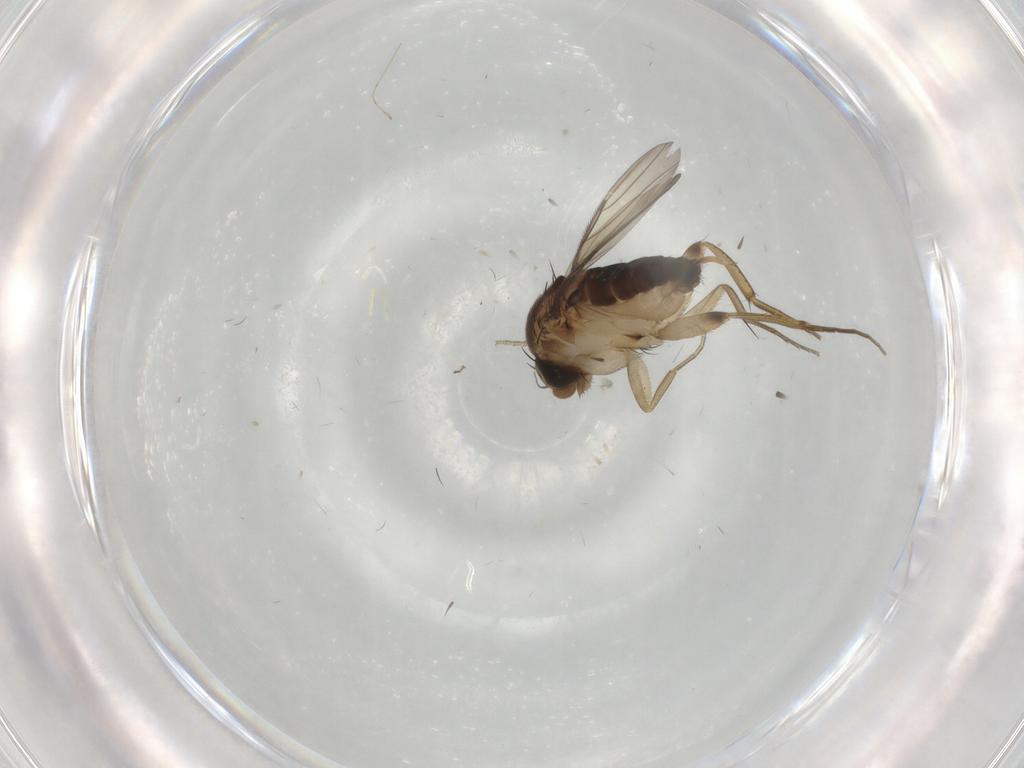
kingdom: Animalia
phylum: Arthropoda
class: Insecta
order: Diptera
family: Phoridae
